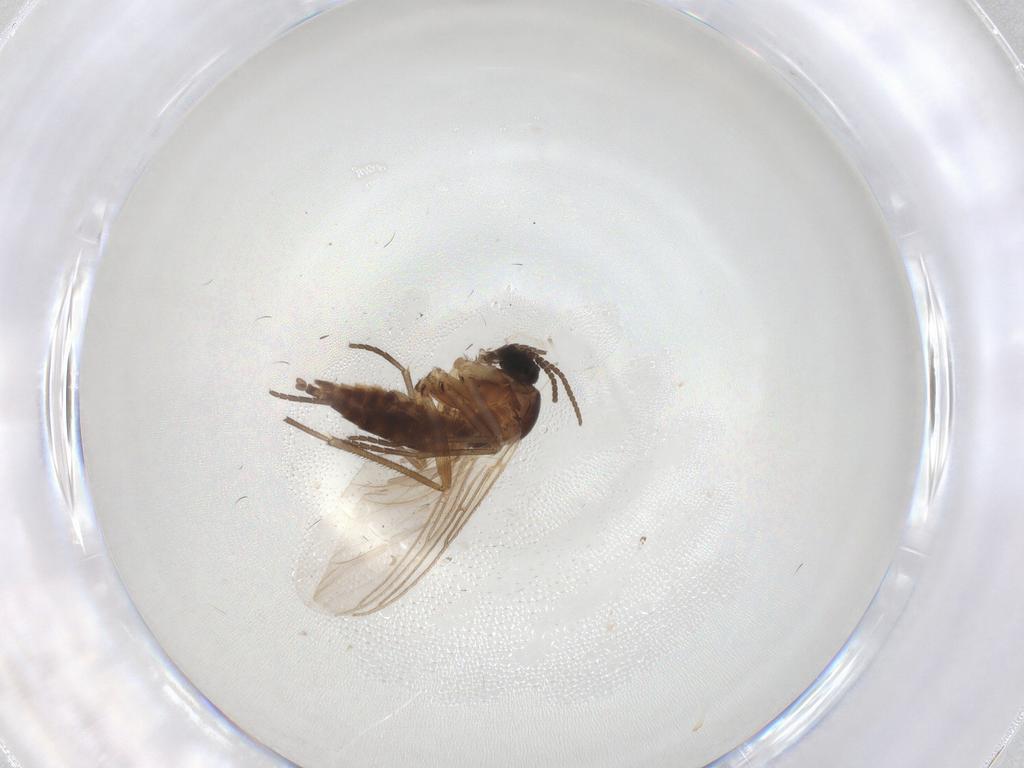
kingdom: Animalia
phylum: Arthropoda
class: Insecta
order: Diptera
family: Sciaridae
